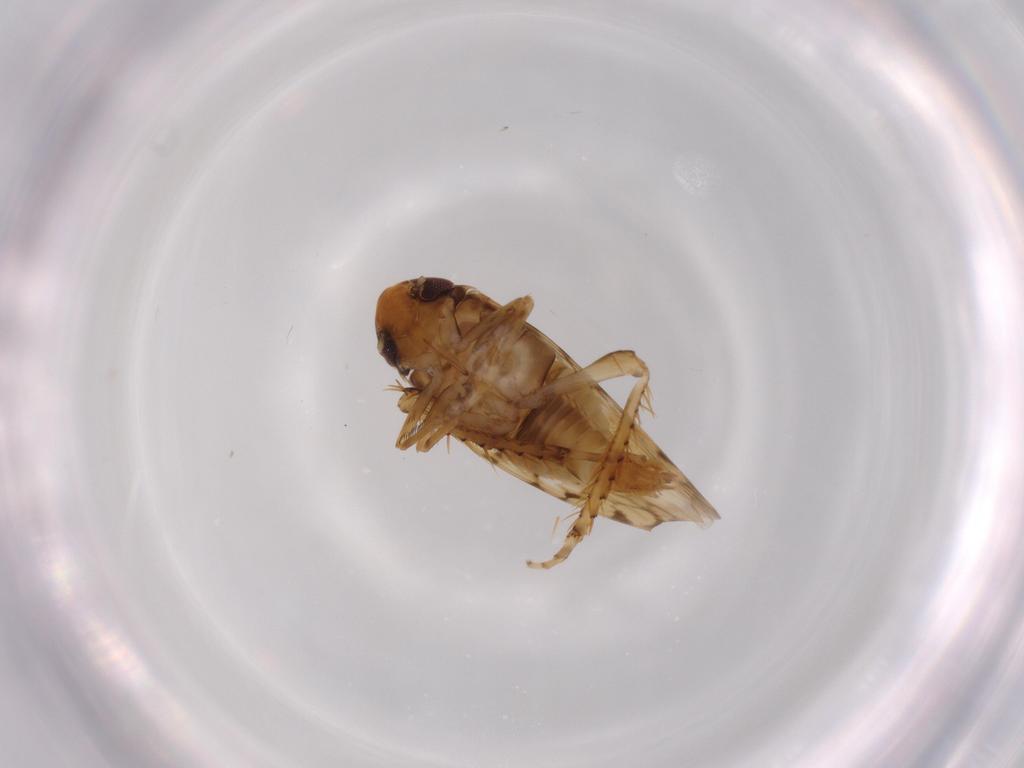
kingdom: Animalia
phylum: Arthropoda
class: Insecta
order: Hemiptera
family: Cicadellidae
